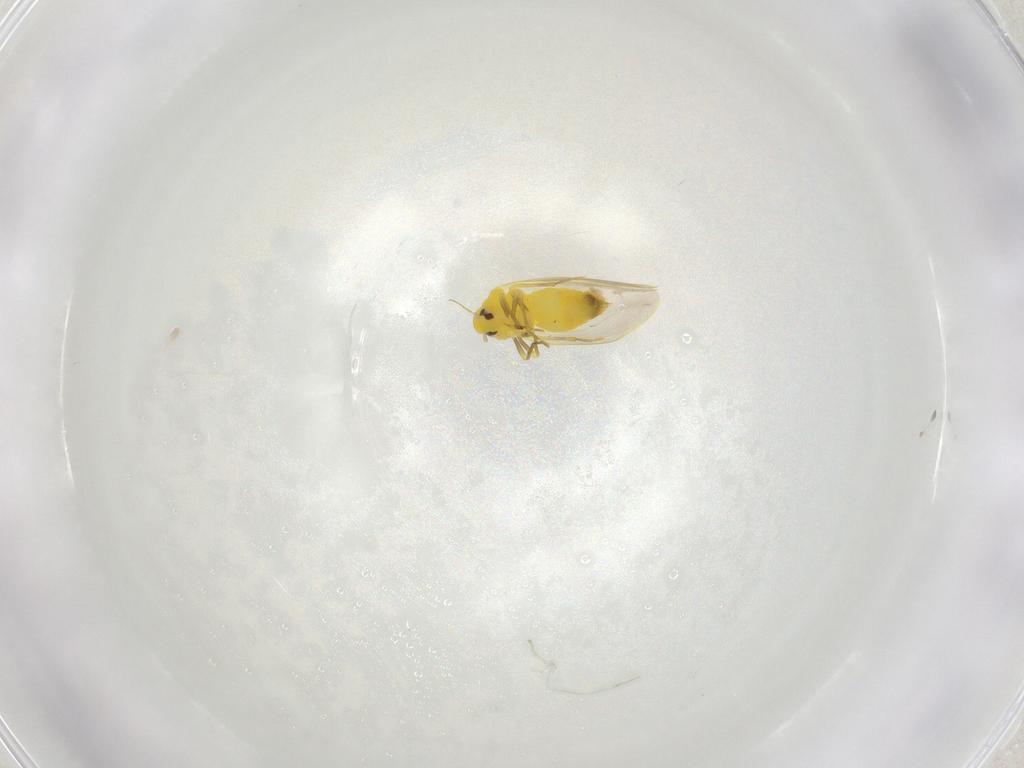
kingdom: Animalia
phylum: Arthropoda
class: Insecta
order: Hemiptera
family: Aleyrodidae
